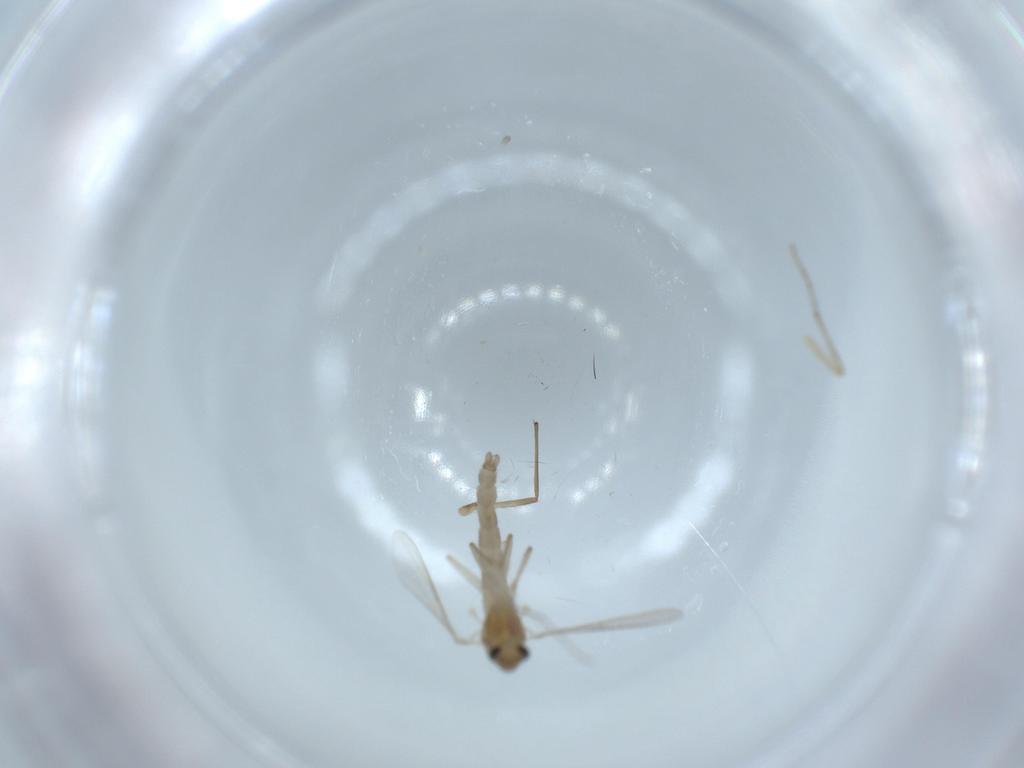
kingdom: Animalia
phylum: Arthropoda
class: Insecta
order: Diptera
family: Chironomidae
